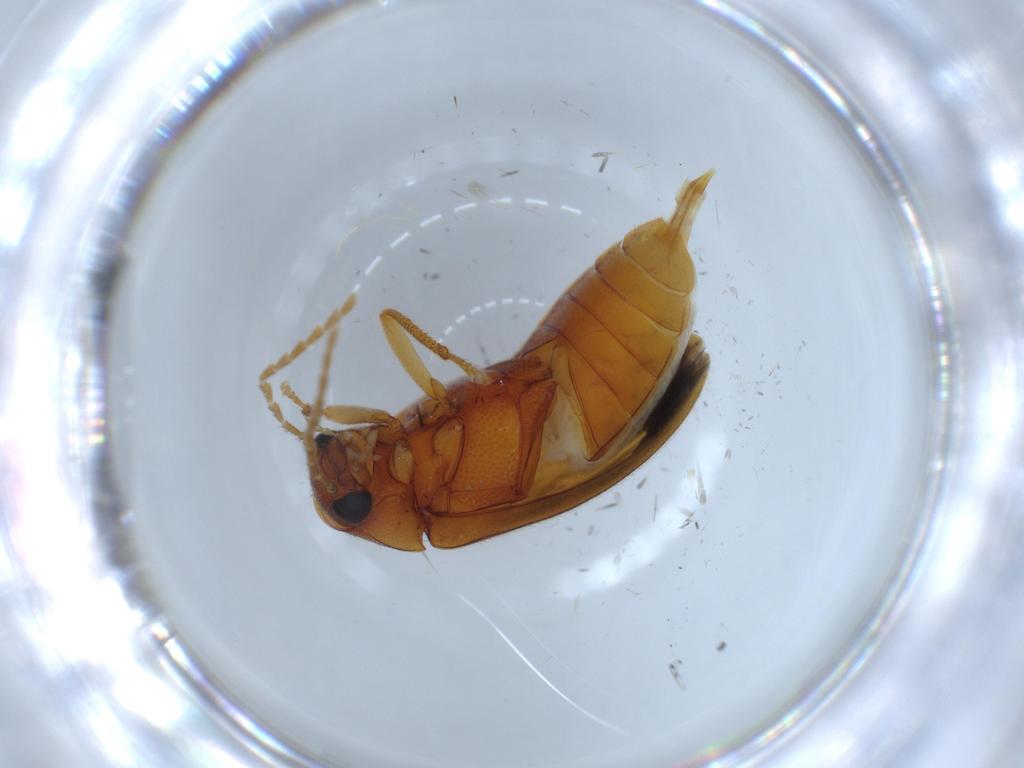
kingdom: Animalia
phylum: Arthropoda
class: Insecta
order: Coleoptera
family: Ptilodactylidae
